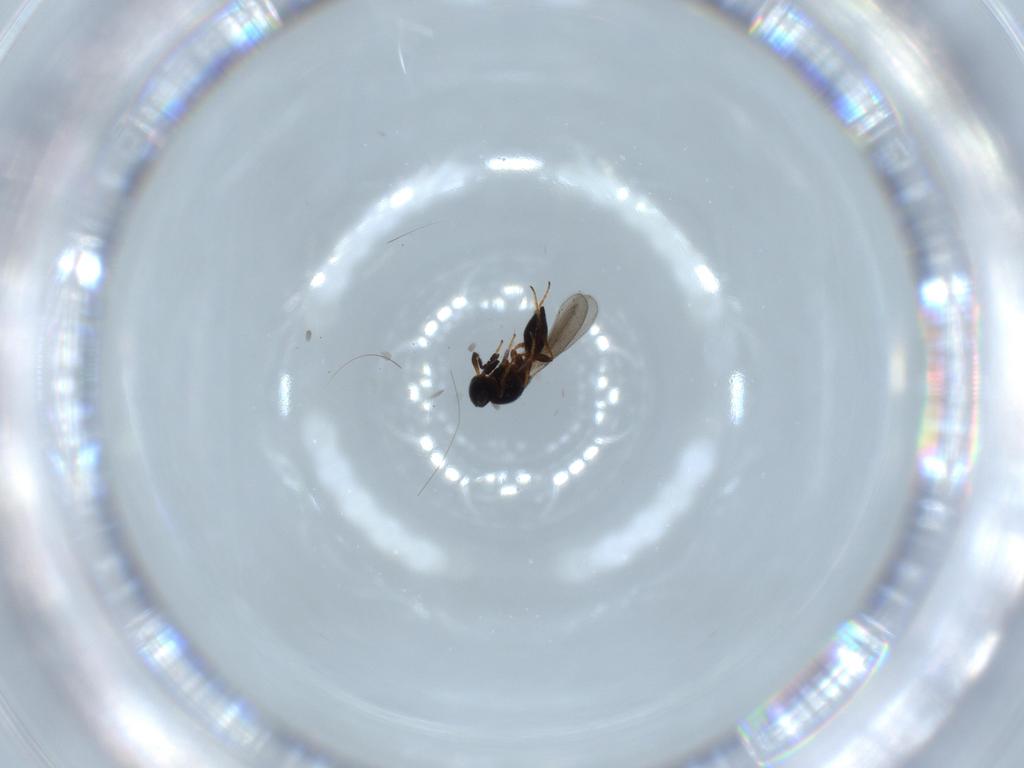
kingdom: Animalia
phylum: Arthropoda
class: Insecta
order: Hymenoptera
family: Platygastridae
